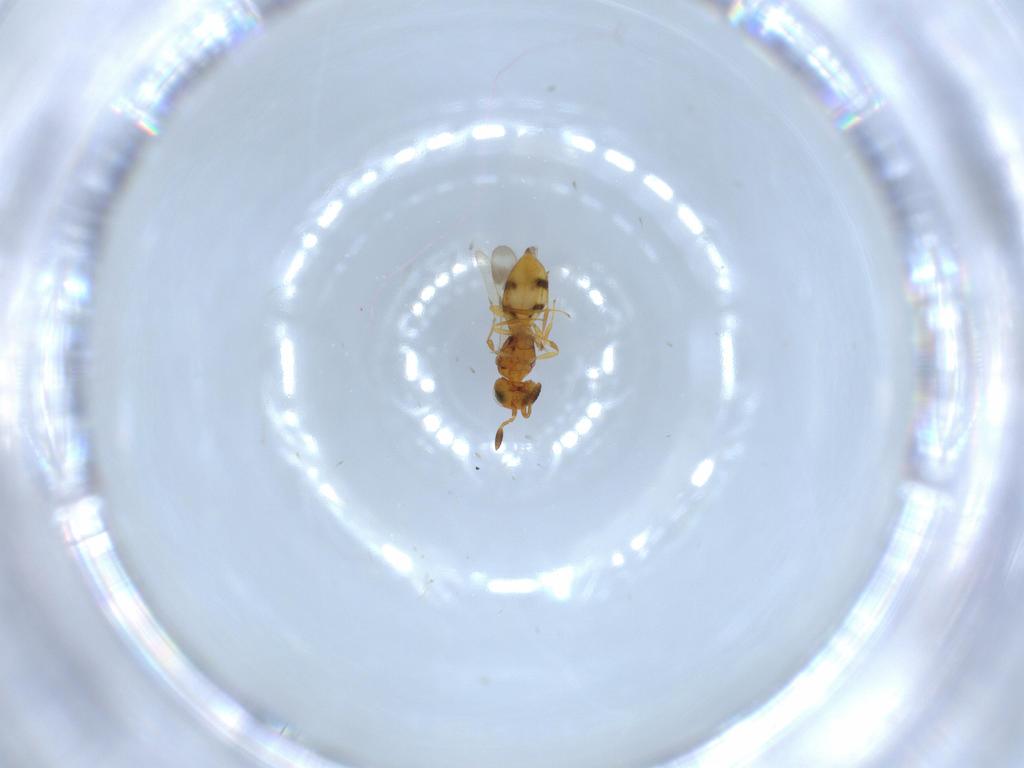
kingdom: Animalia
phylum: Arthropoda
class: Insecta
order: Hymenoptera
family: Scelionidae
